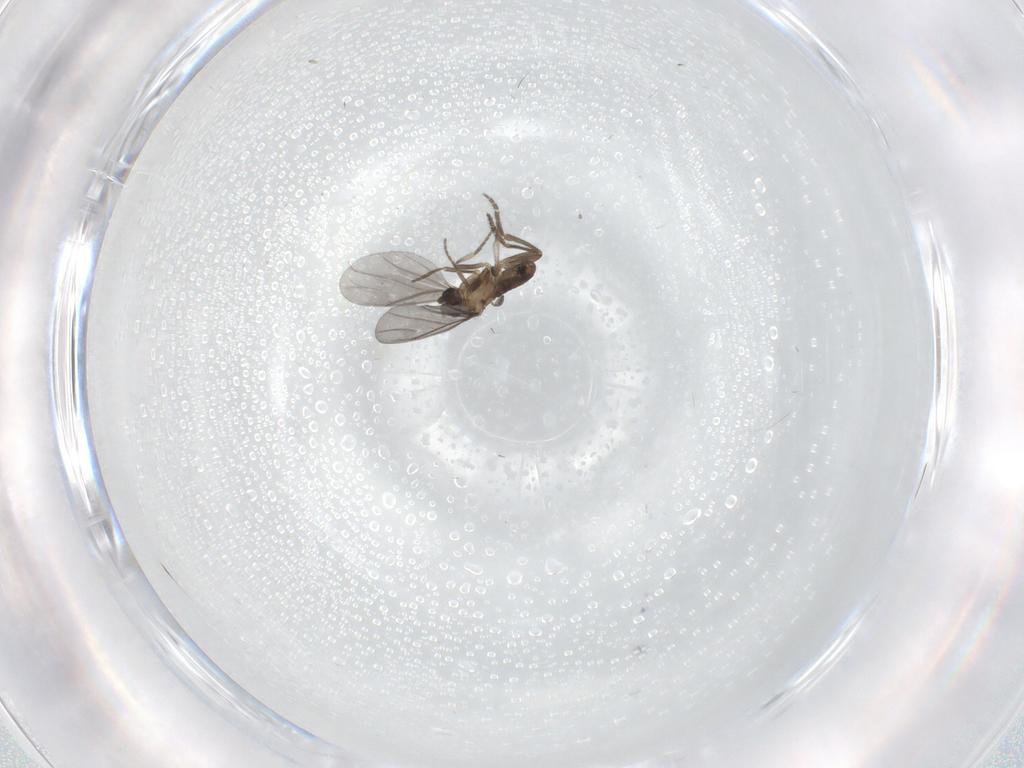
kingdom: Animalia
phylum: Arthropoda
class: Insecta
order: Diptera
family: Phoridae
